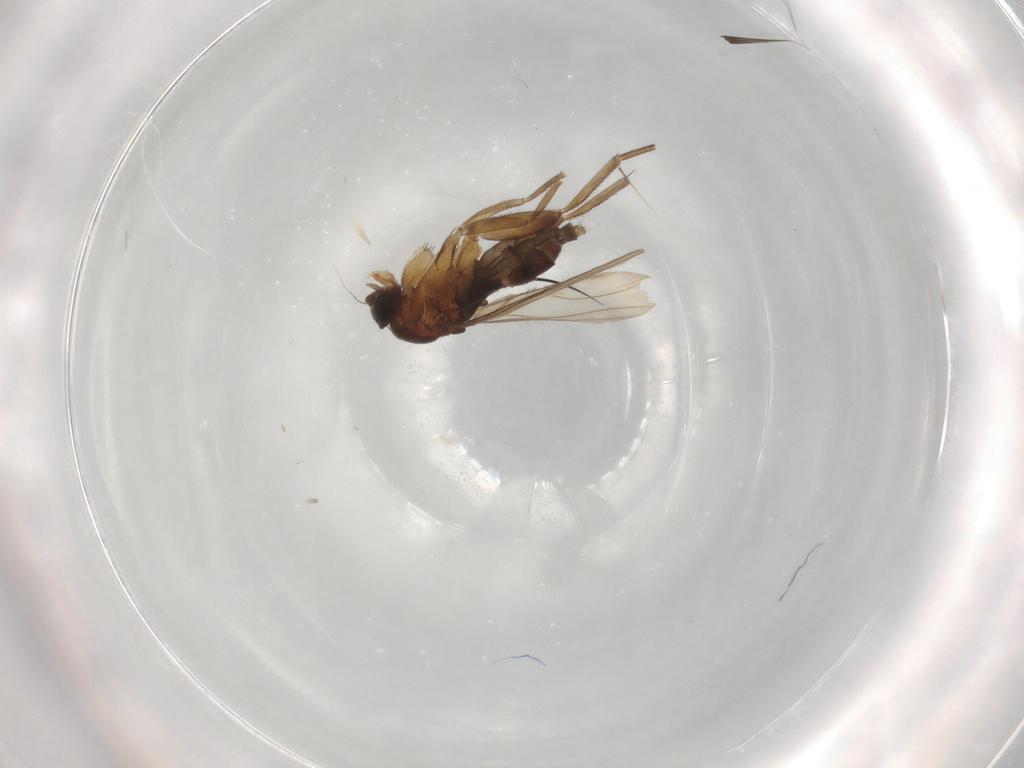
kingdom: Animalia
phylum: Arthropoda
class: Insecta
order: Diptera
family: Phoridae
